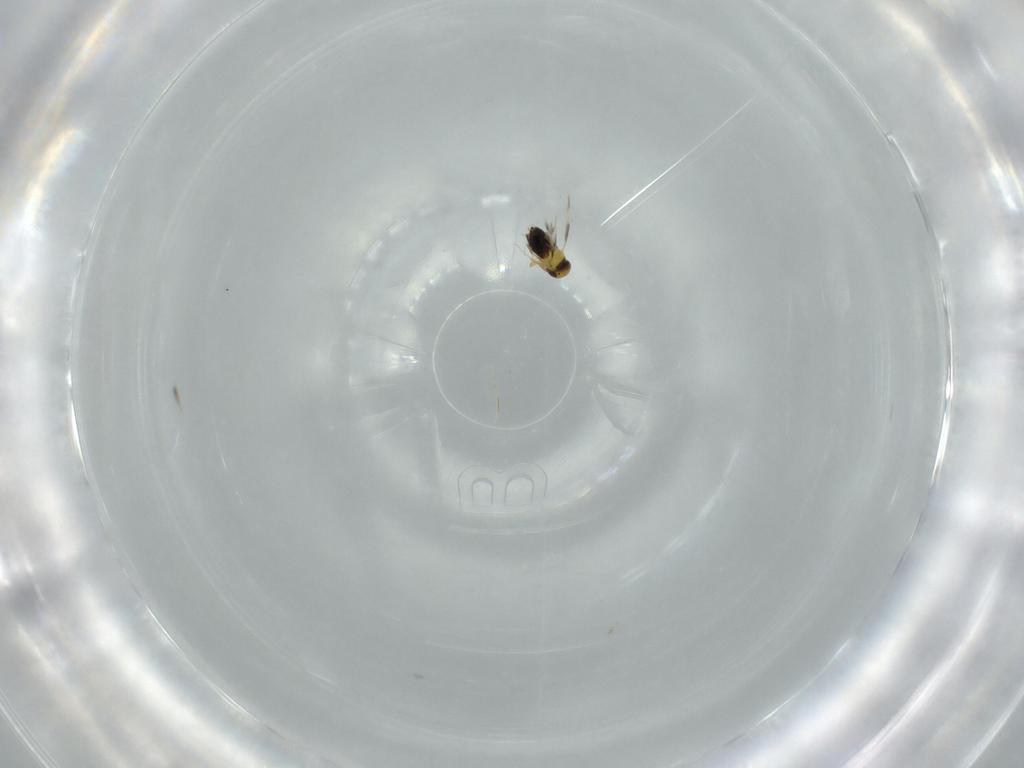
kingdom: Animalia
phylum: Arthropoda
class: Insecta
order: Hymenoptera
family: Signiphoridae
